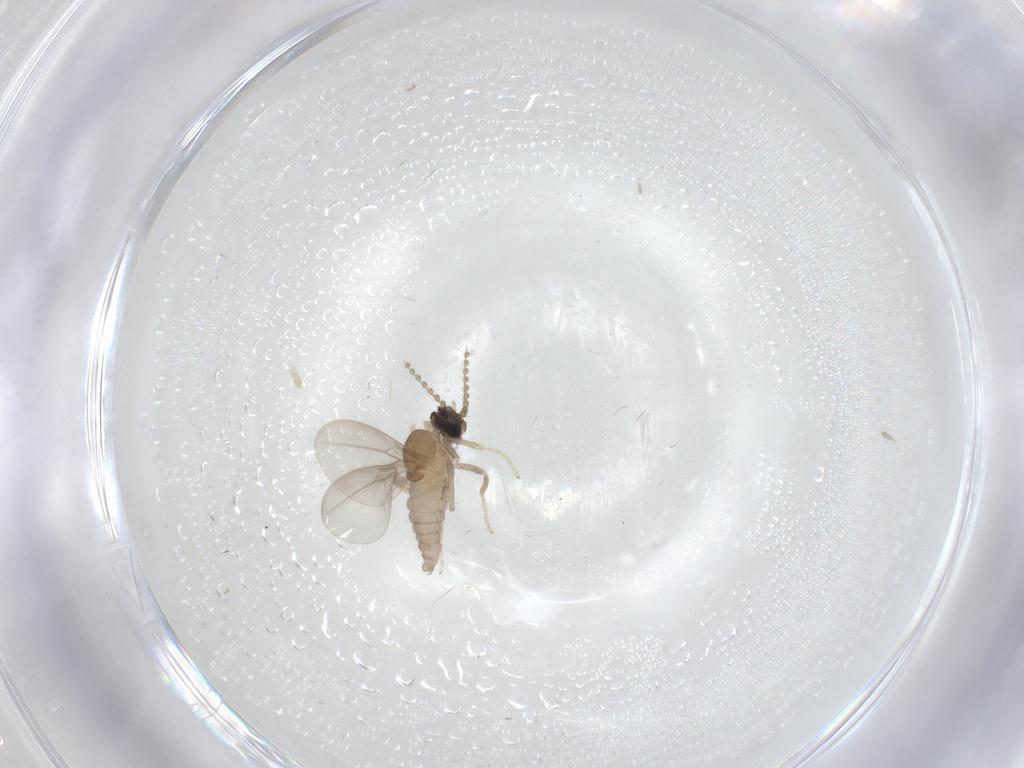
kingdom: Animalia
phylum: Arthropoda
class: Insecta
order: Diptera
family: Cecidomyiidae
